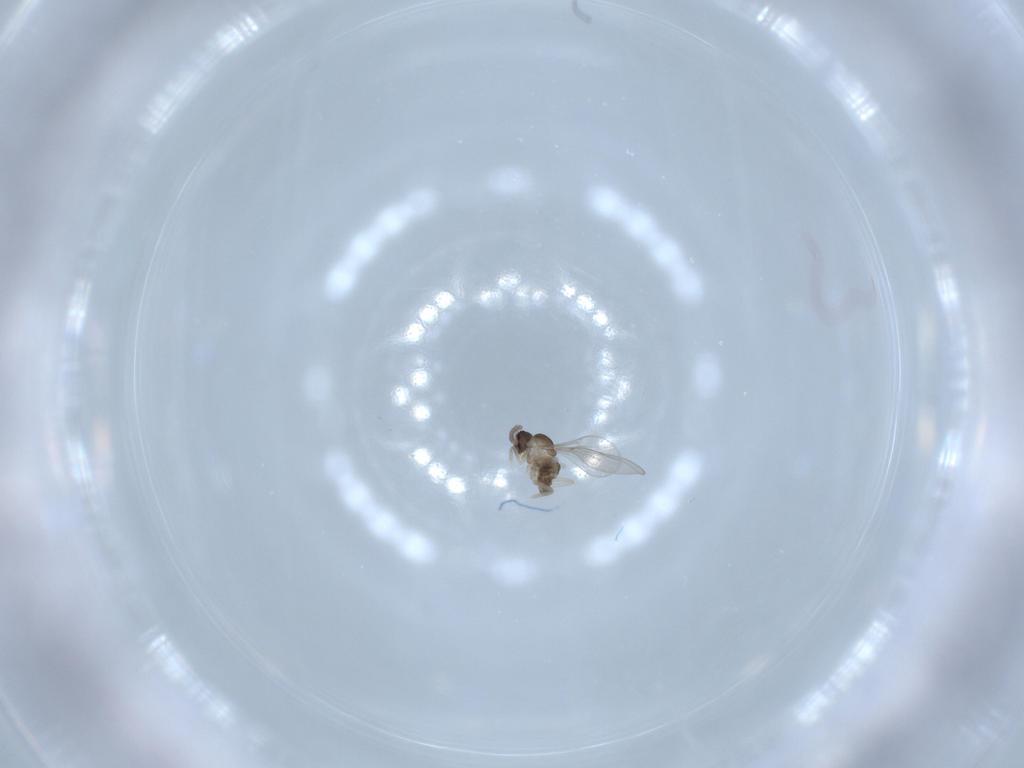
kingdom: Animalia
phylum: Arthropoda
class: Insecta
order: Diptera
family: Cecidomyiidae
